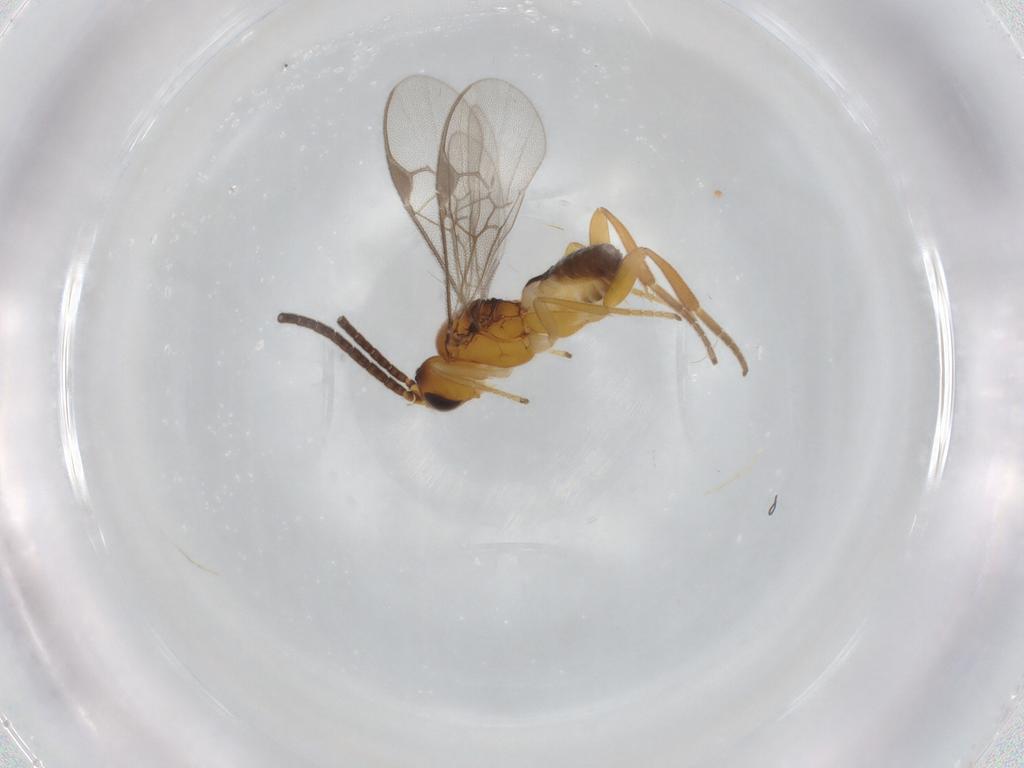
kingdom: Animalia
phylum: Arthropoda
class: Insecta
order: Hymenoptera
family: Braconidae
